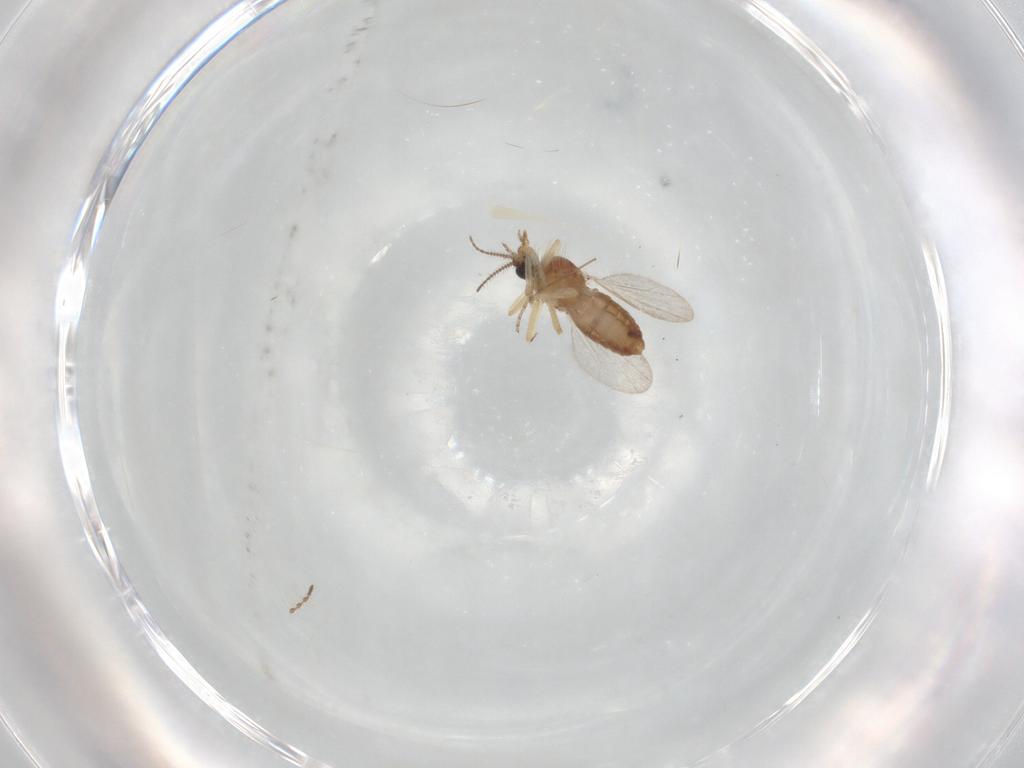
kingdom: Animalia
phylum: Arthropoda
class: Insecta
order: Diptera
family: Ceratopogonidae
